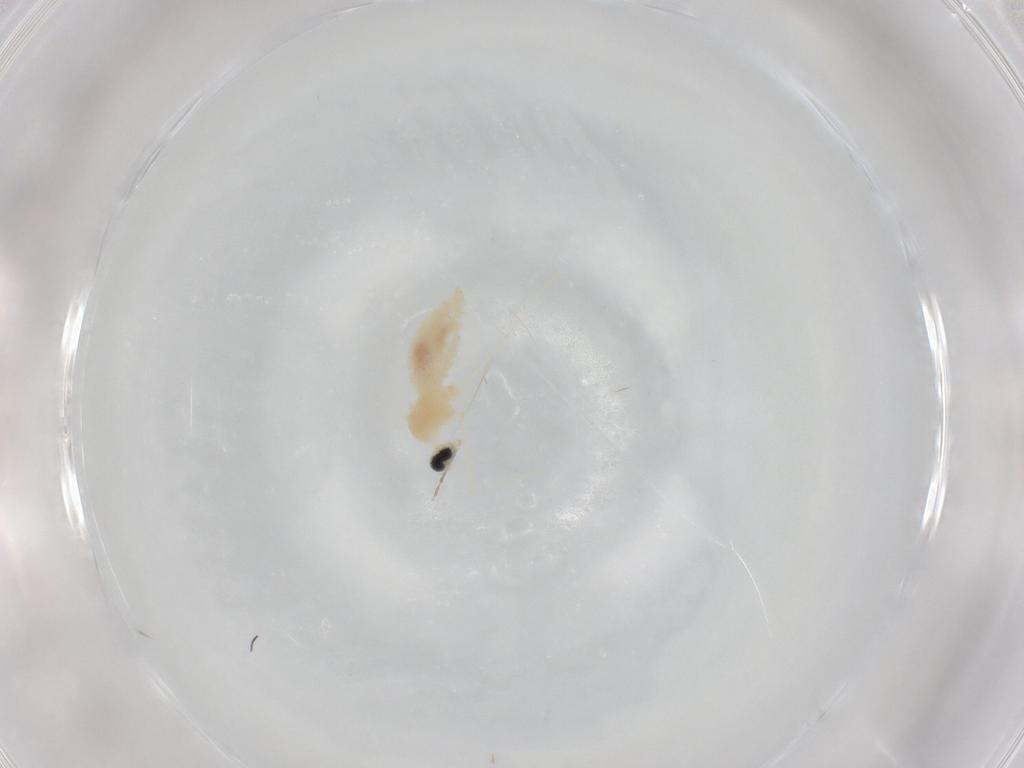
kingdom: Animalia
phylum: Arthropoda
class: Insecta
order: Diptera
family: Cecidomyiidae
